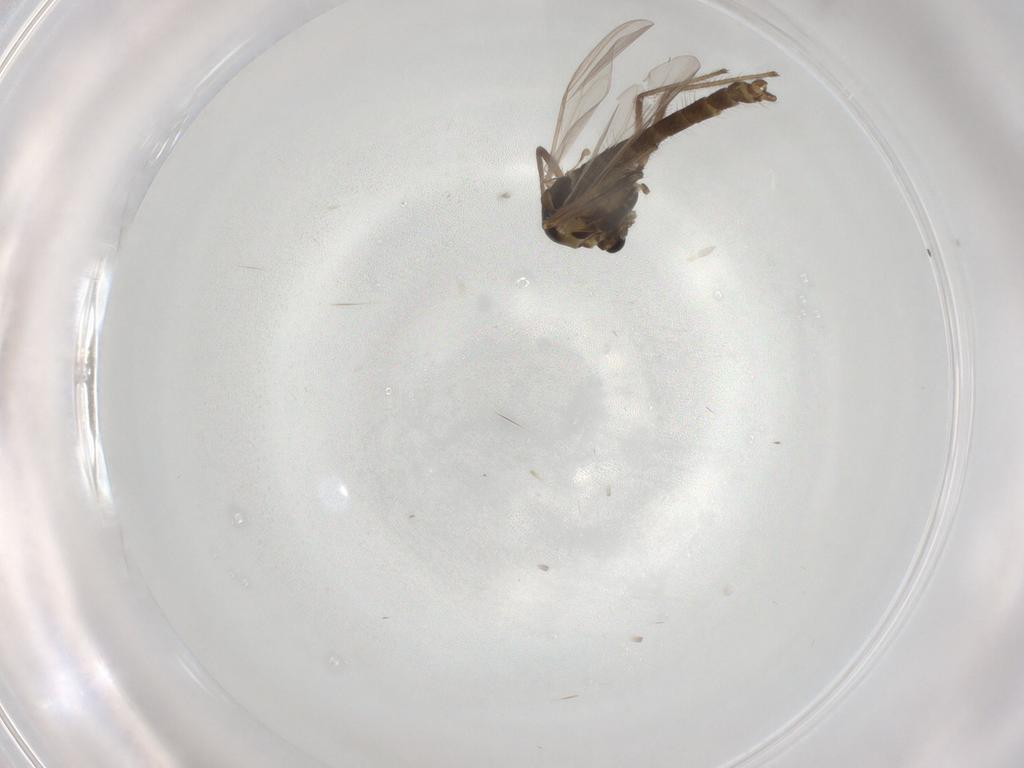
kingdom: Animalia
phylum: Arthropoda
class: Insecta
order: Diptera
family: Chironomidae
